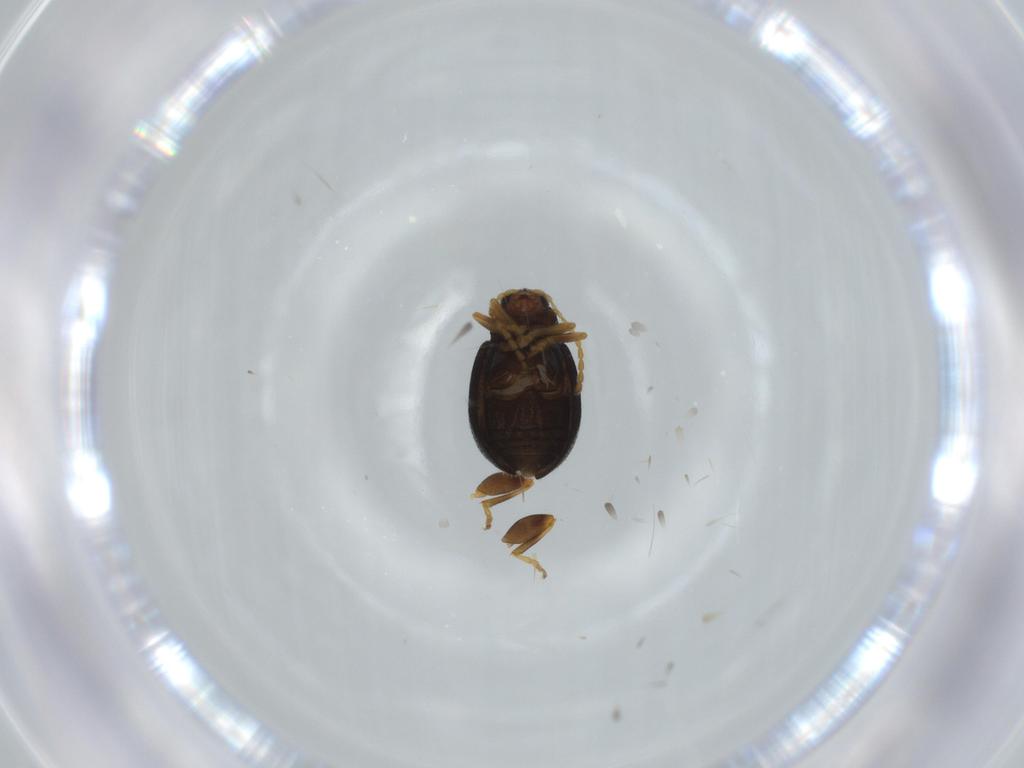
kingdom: Animalia
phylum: Arthropoda
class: Insecta
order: Coleoptera
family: Chrysomelidae
